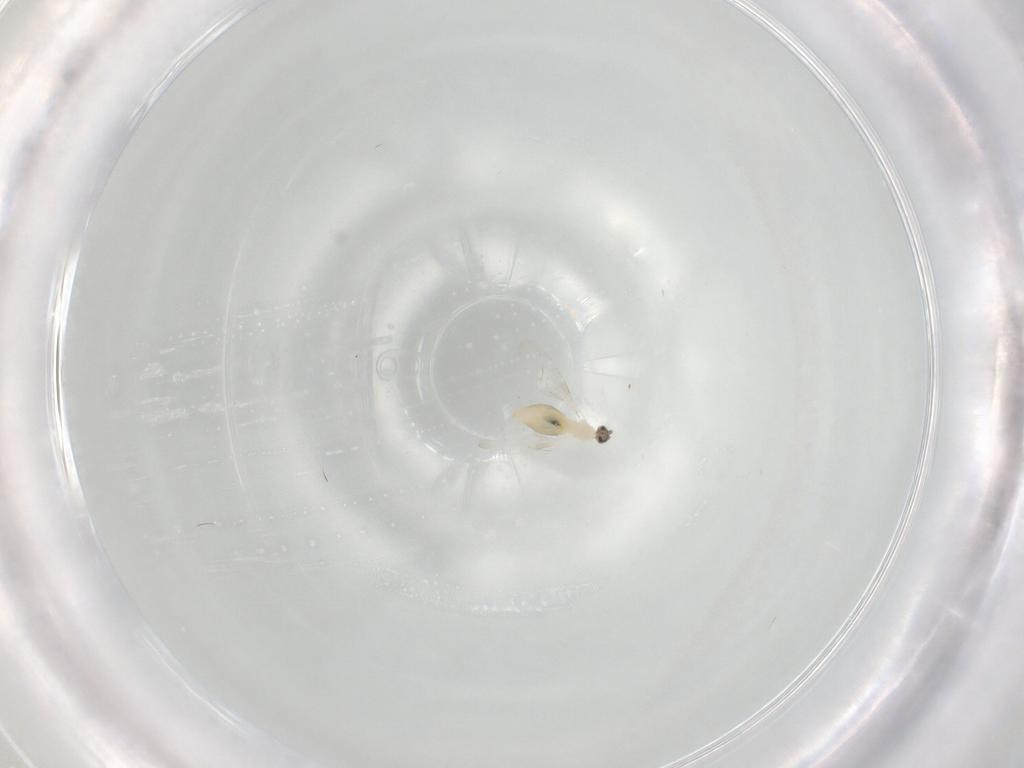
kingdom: Animalia
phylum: Arthropoda
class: Insecta
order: Diptera
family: Cecidomyiidae
